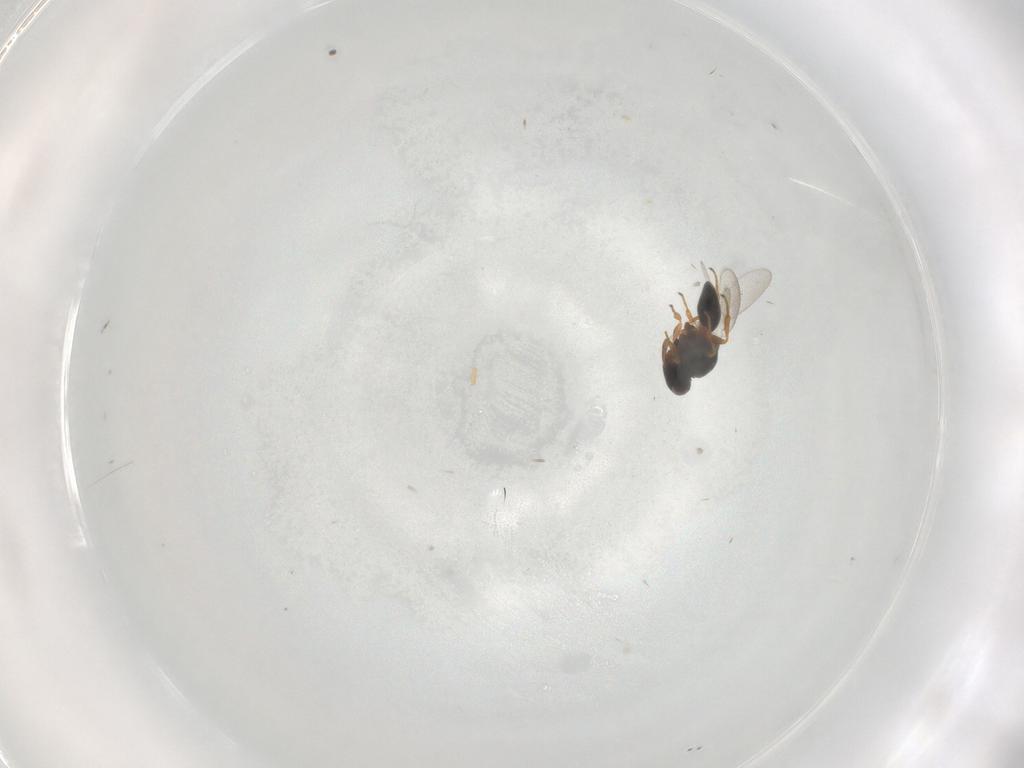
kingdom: Animalia
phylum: Arthropoda
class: Insecta
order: Hymenoptera
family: Platygastridae
